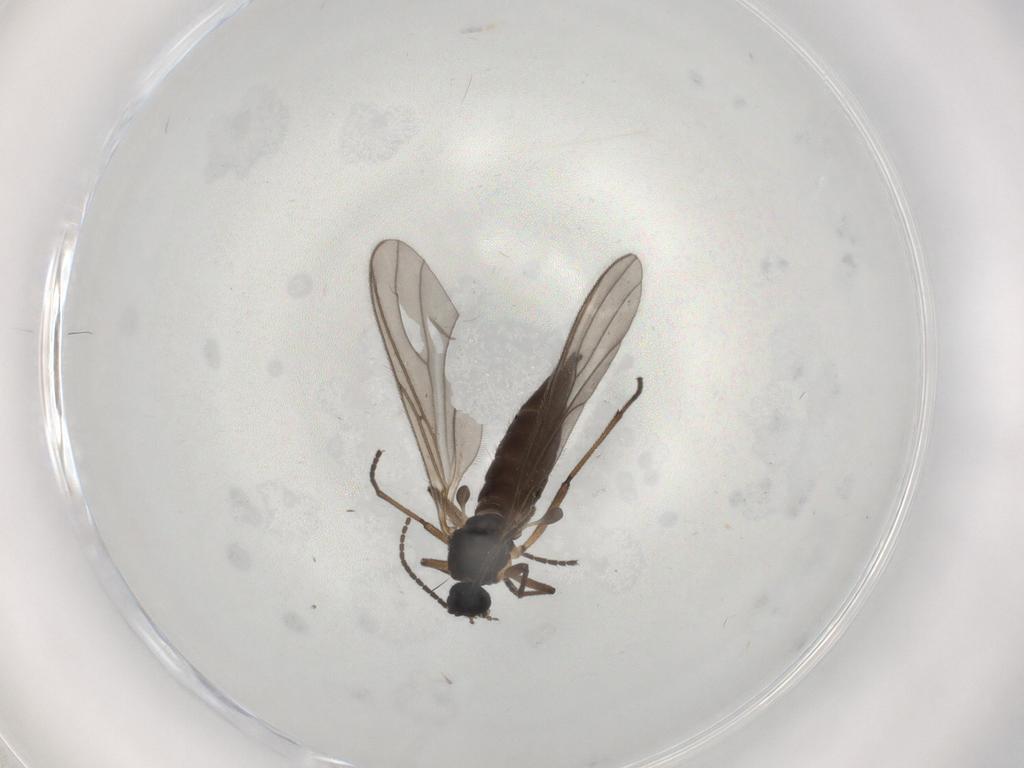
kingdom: Animalia
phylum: Arthropoda
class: Insecta
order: Diptera
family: Sciaridae
